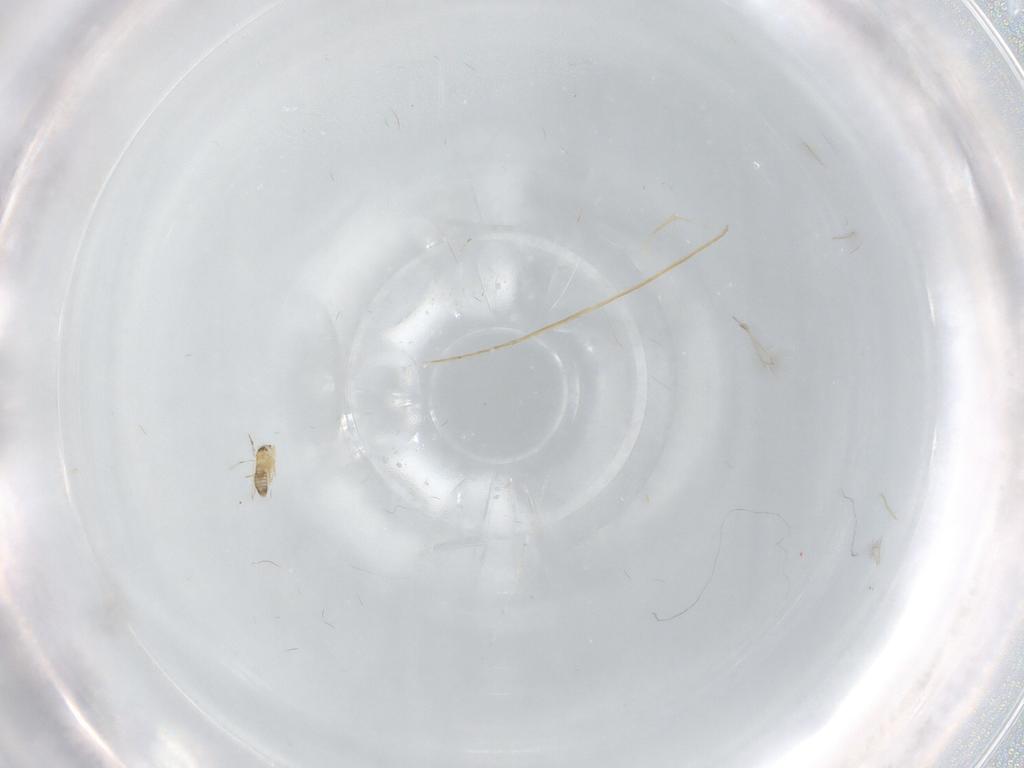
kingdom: Animalia
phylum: Arthropoda
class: Insecta
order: Hymenoptera
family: Mymaridae
